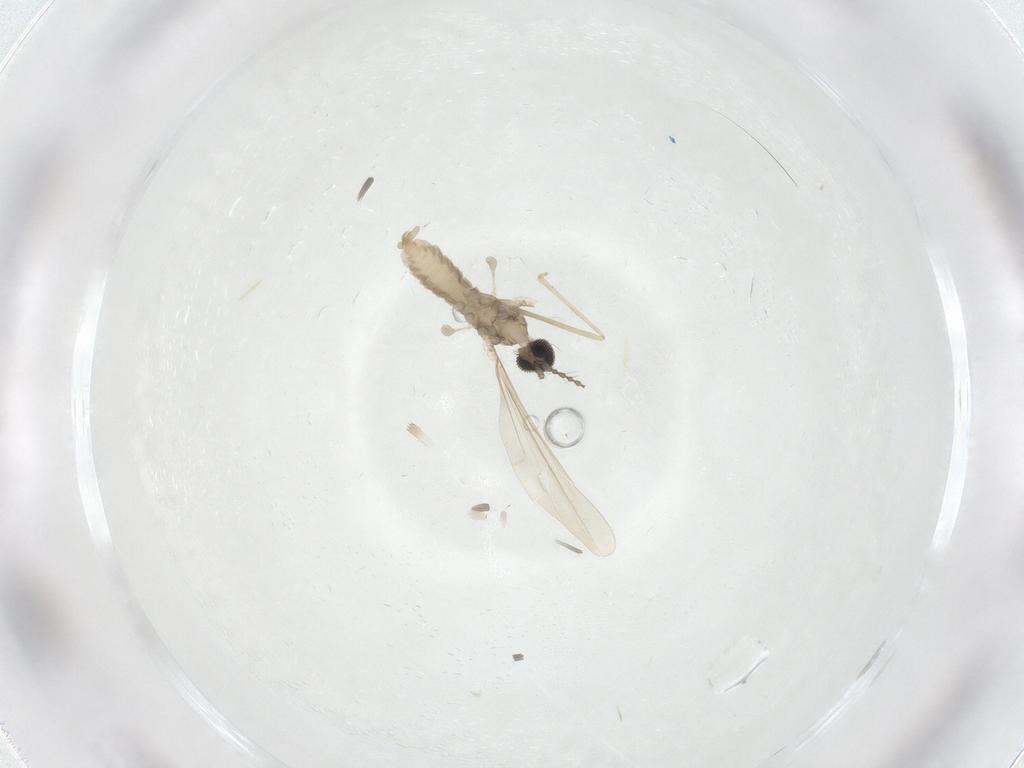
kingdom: Animalia
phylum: Arthropoda
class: Insecta
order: Diptera
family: Cecidomyiidae
